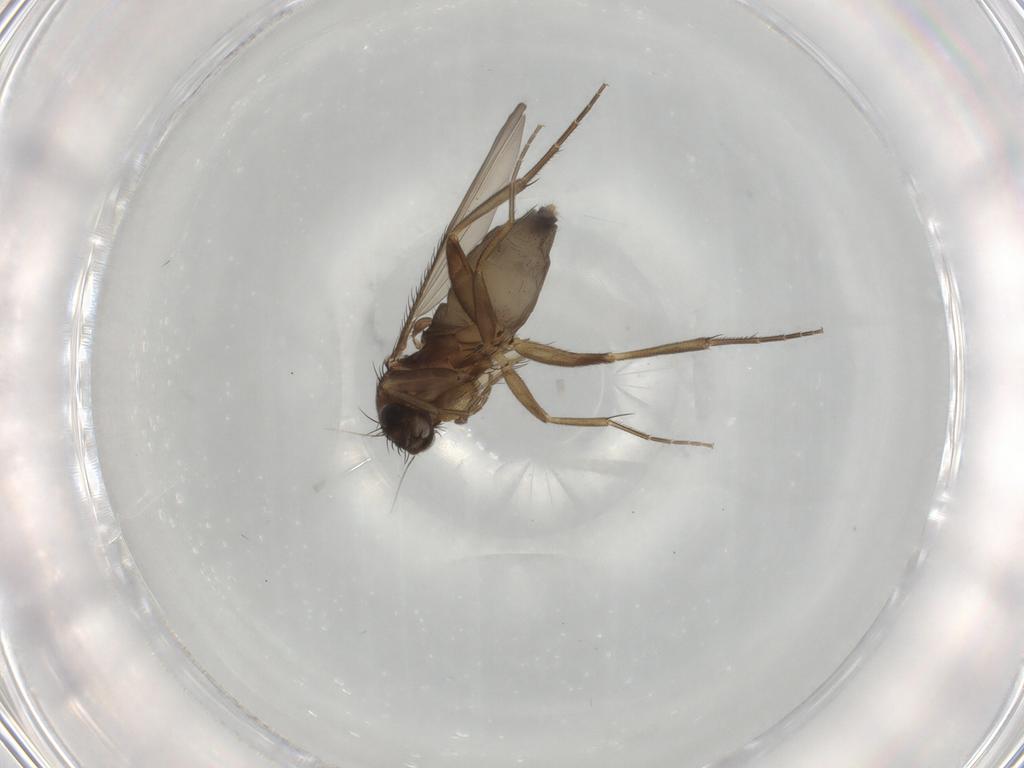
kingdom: Animalia
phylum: Arthropoda
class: Insecta
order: Diptera
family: Phoridae
